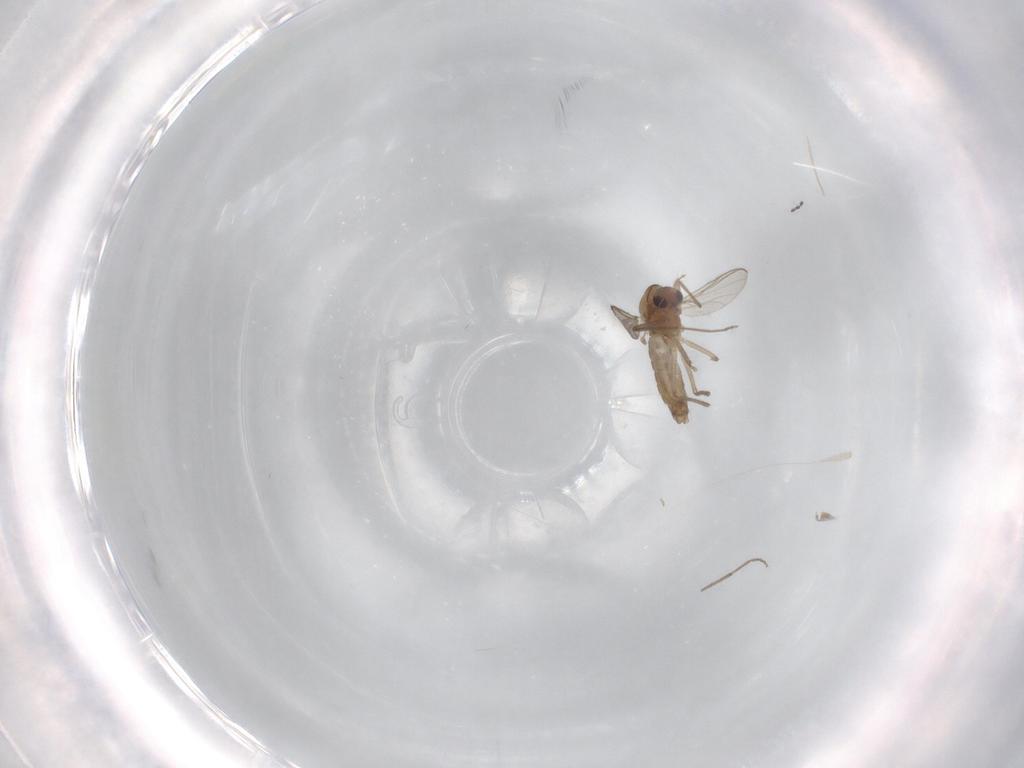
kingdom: Animalia
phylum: Arthropoda
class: Insecta
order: Diptera
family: Chironomidae
